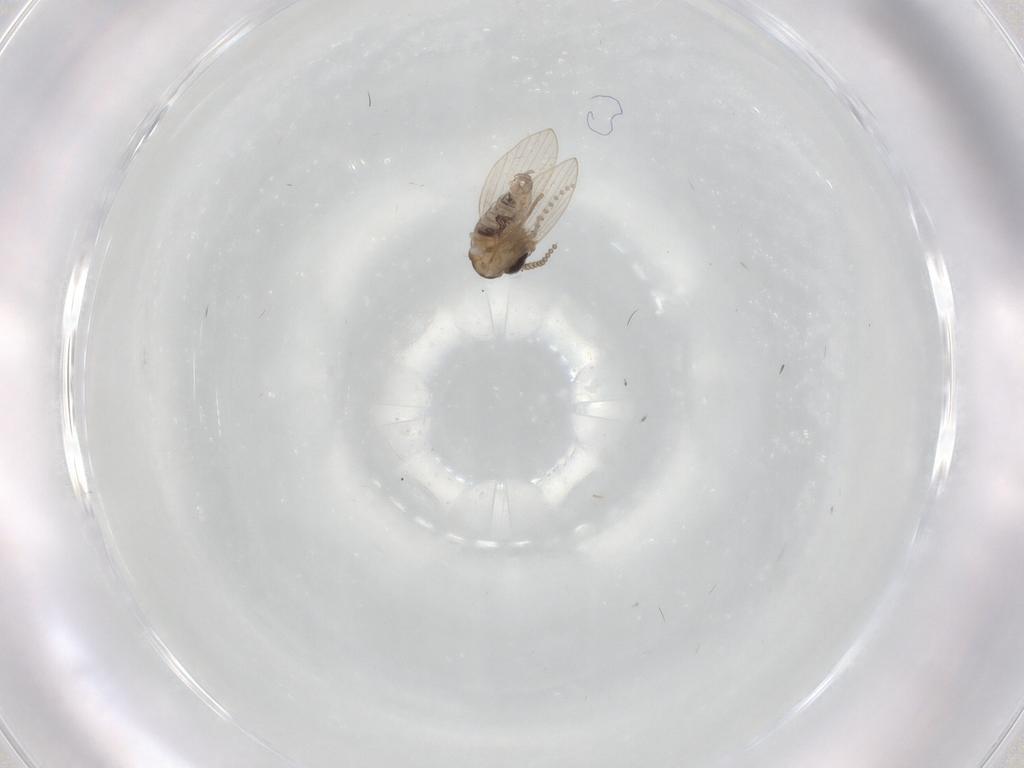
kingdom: Animalia
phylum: Arthropoda
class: Insecta
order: Diptera
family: Psychodidae
